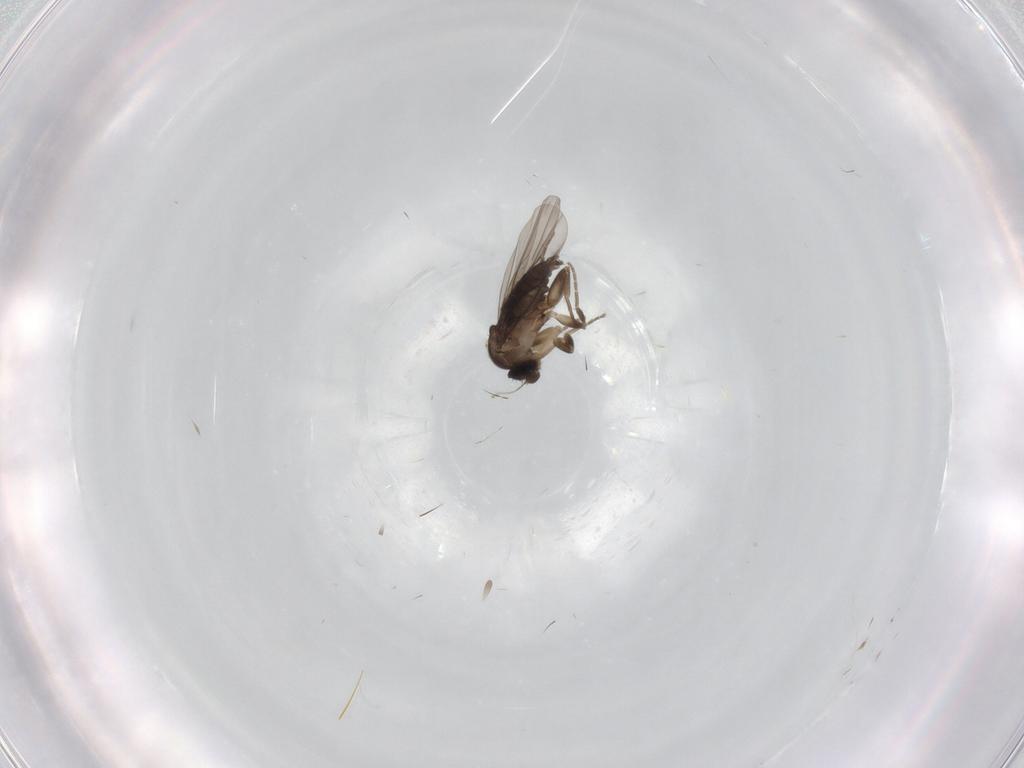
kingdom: Animalia
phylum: Arthropoda
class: Insecta
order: Diptera
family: Phoridae
